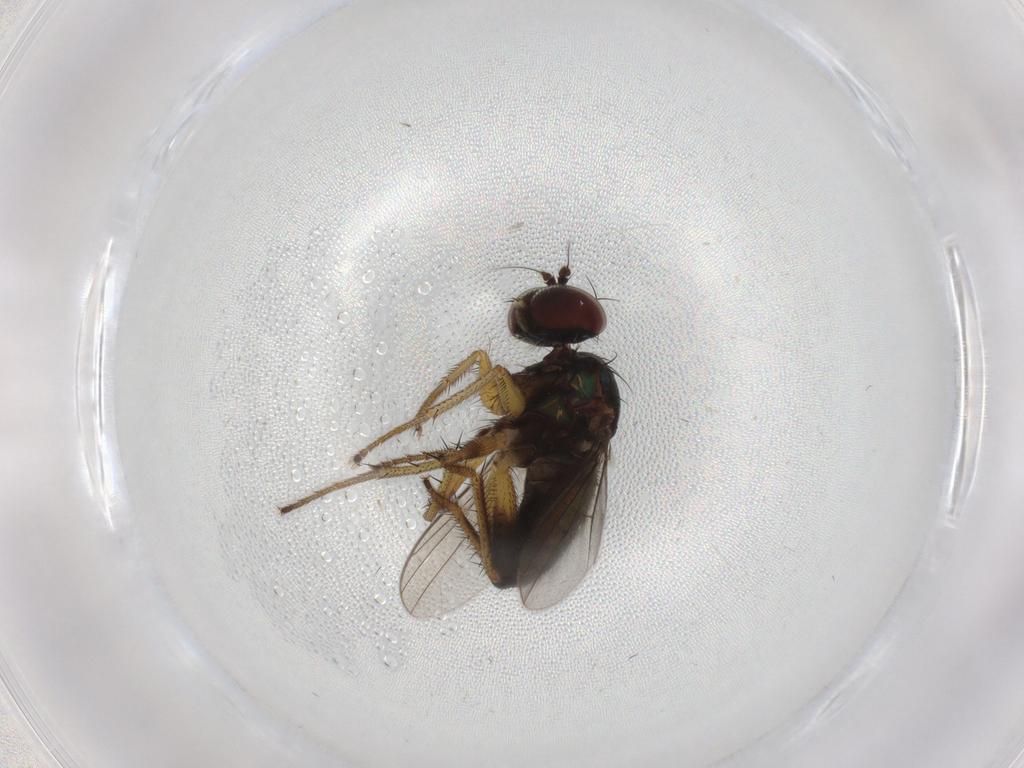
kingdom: Animalia
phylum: Arthropoda
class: Insecta
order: Diptera
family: Dolichopodidae
